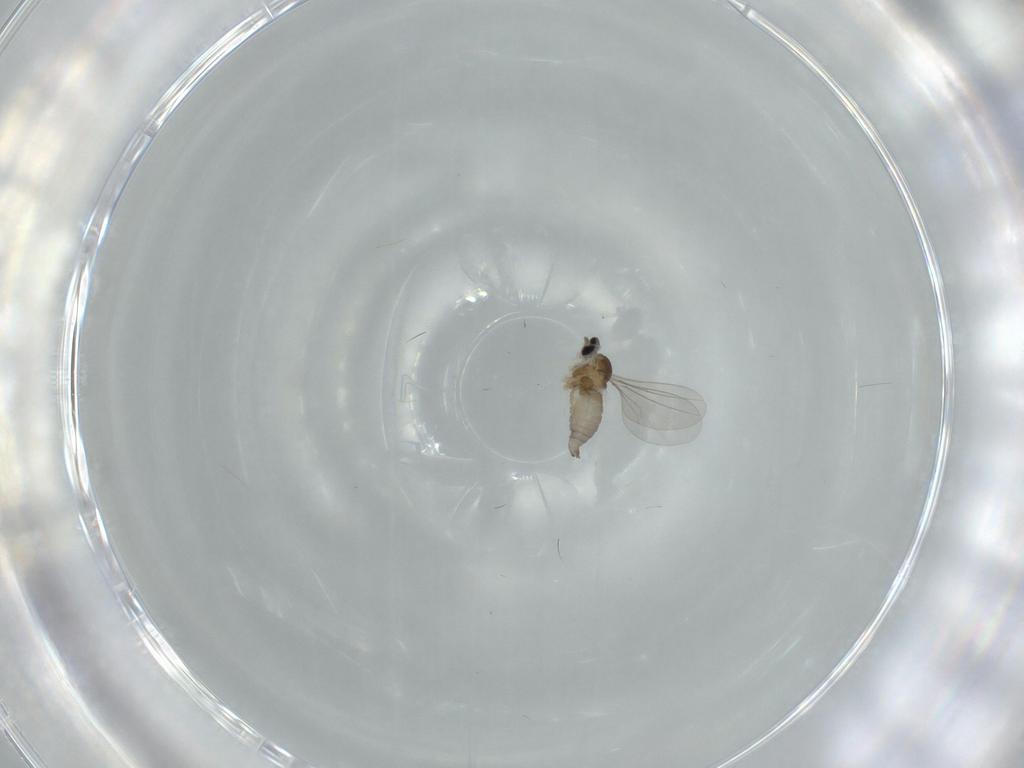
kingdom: Animalia
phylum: Arthropoda
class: Insecta
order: Diptera
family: Cecidomyiidae
